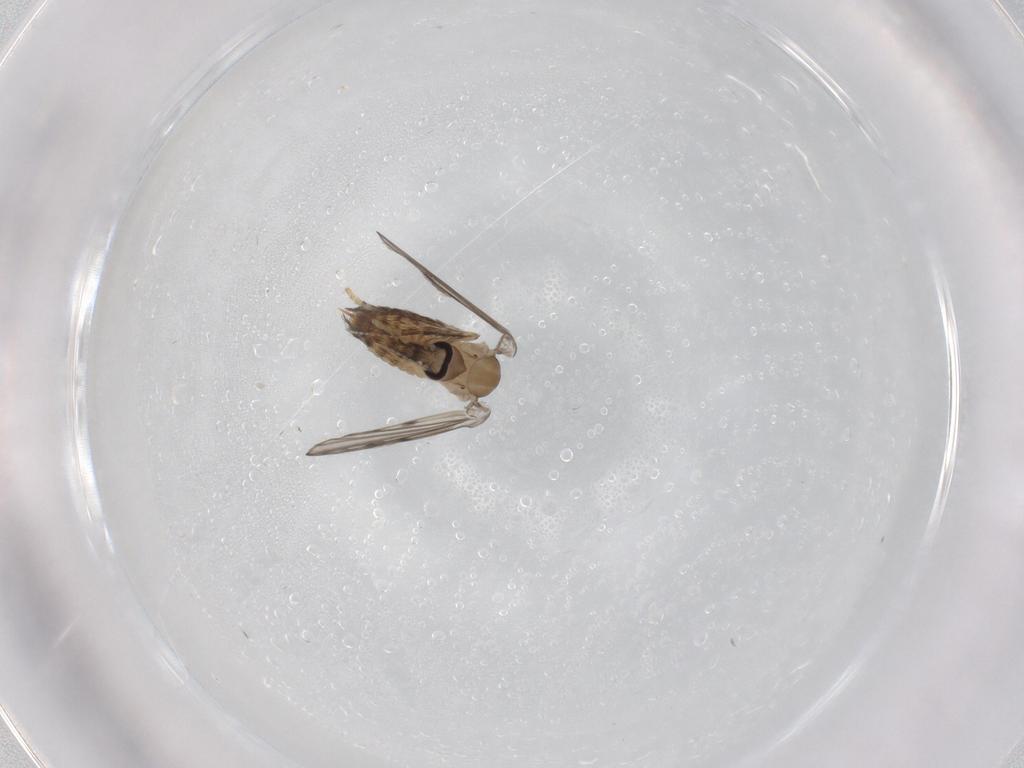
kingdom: Animalia
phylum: Arthropoda
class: Insecta
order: Diptera
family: Psychodidae
